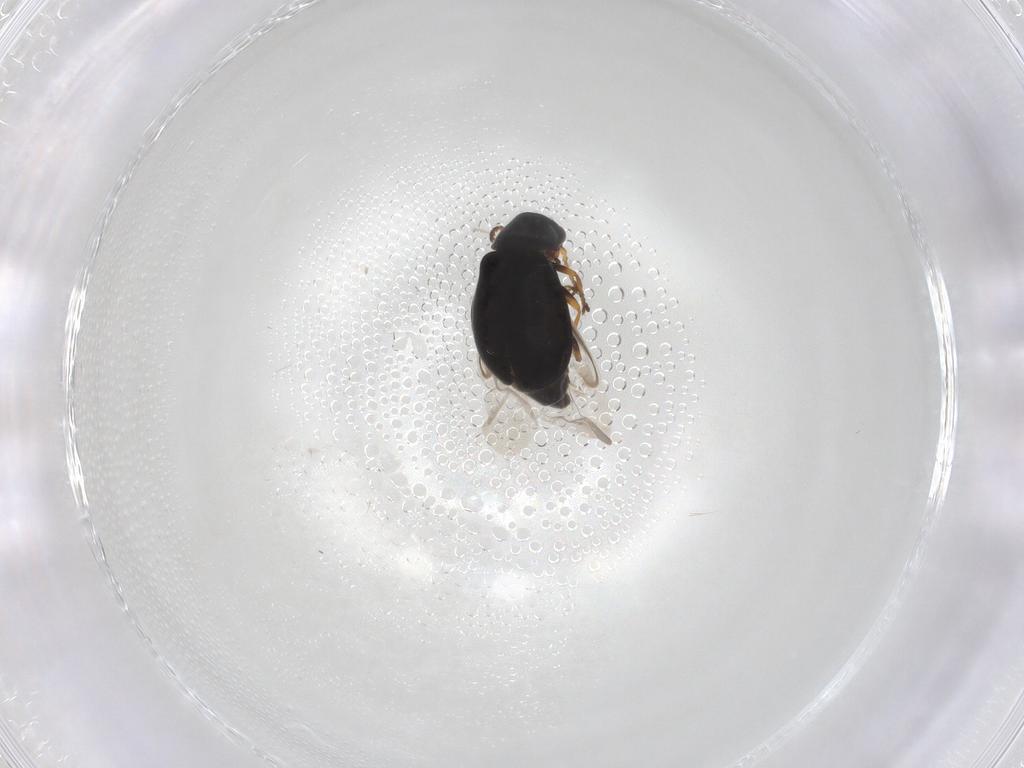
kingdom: Animalia
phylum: Arthropoda
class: Insecta
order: Coleoptera
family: Melyridae
